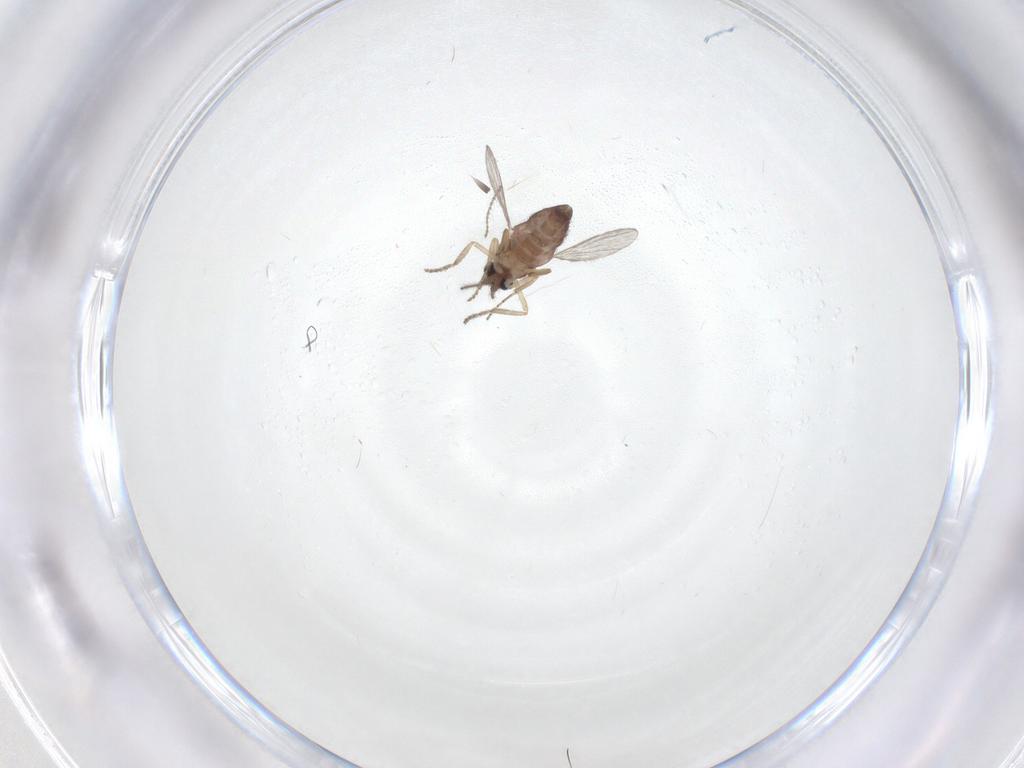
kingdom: Animalia
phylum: Arthropoda
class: Insecta
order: Diptera
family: Ceratopogonidae
